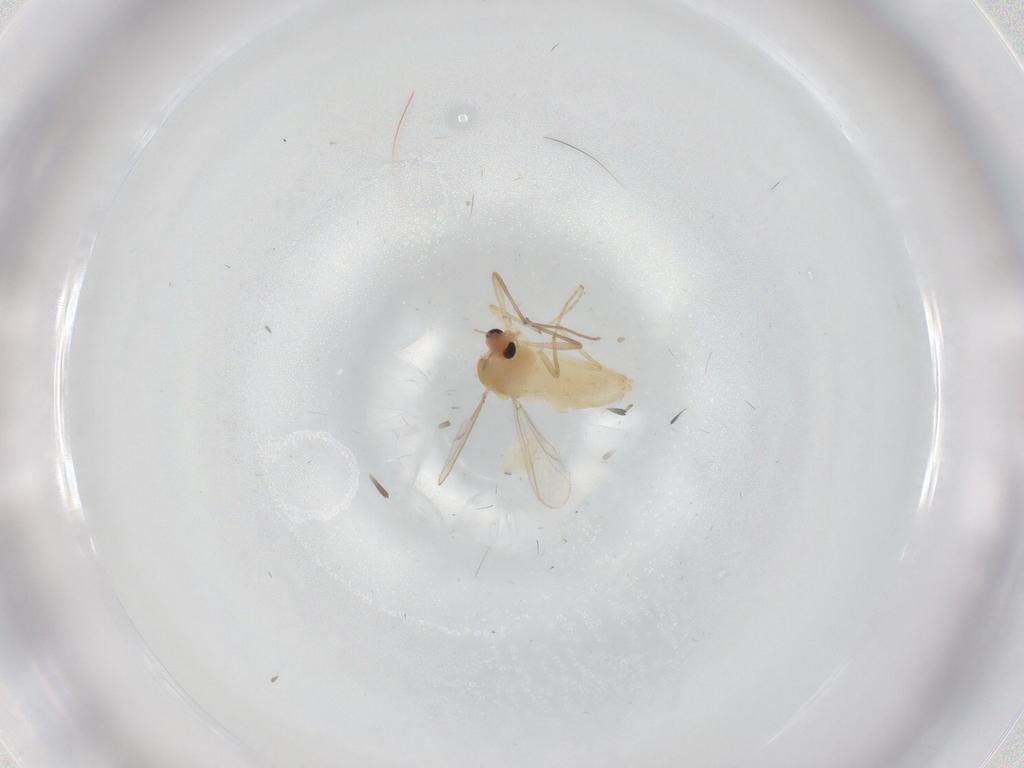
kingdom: Animalia
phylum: Arthropoda
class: Insecta
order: Diptera
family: Chironomidae
